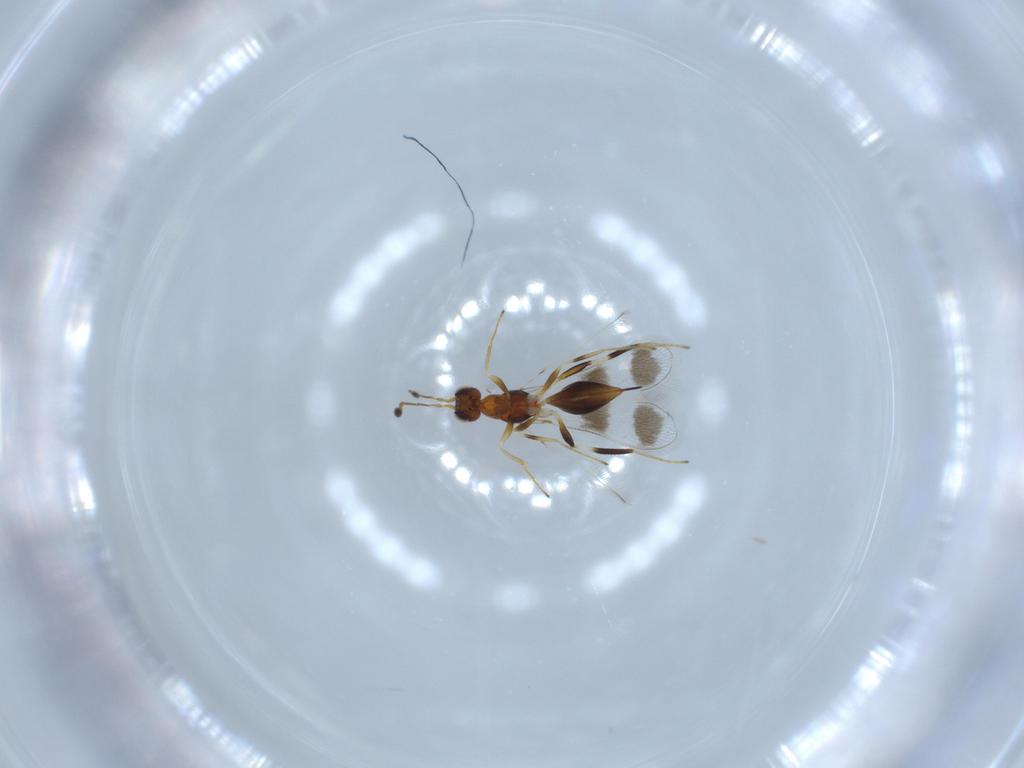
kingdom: Animalia
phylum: Arthropoda
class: Insecta
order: Hymenoptera
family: Mymaridae
